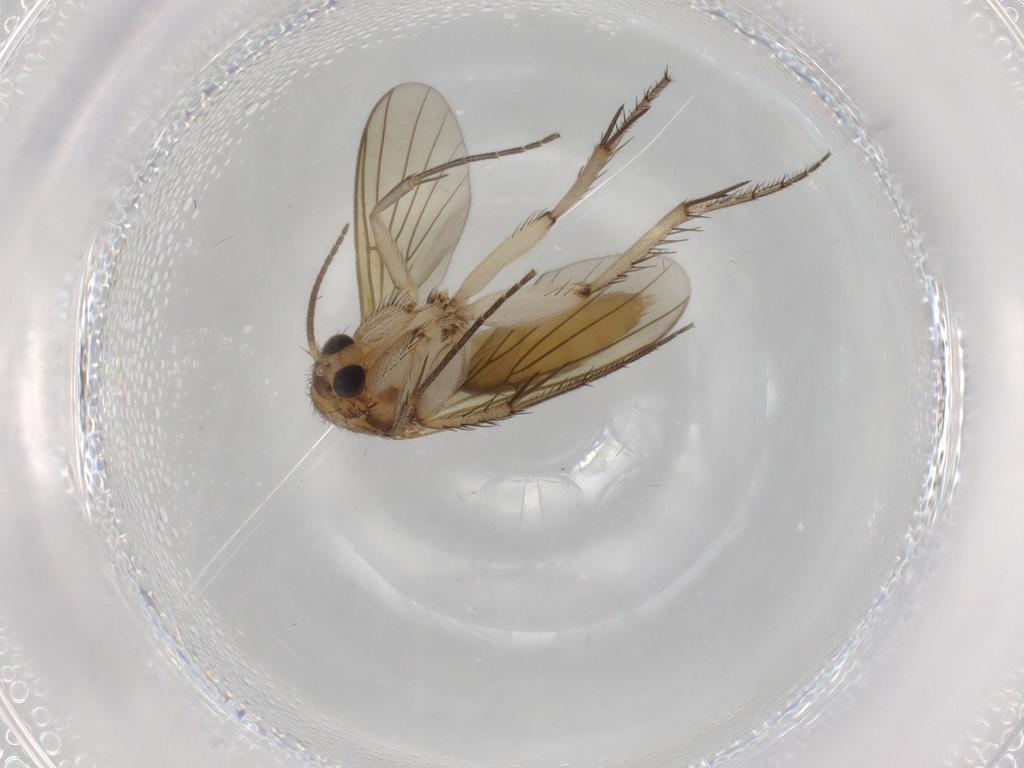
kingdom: Animalia
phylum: Arthropoda
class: Insecta
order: Diptera
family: Mycetophilidae
